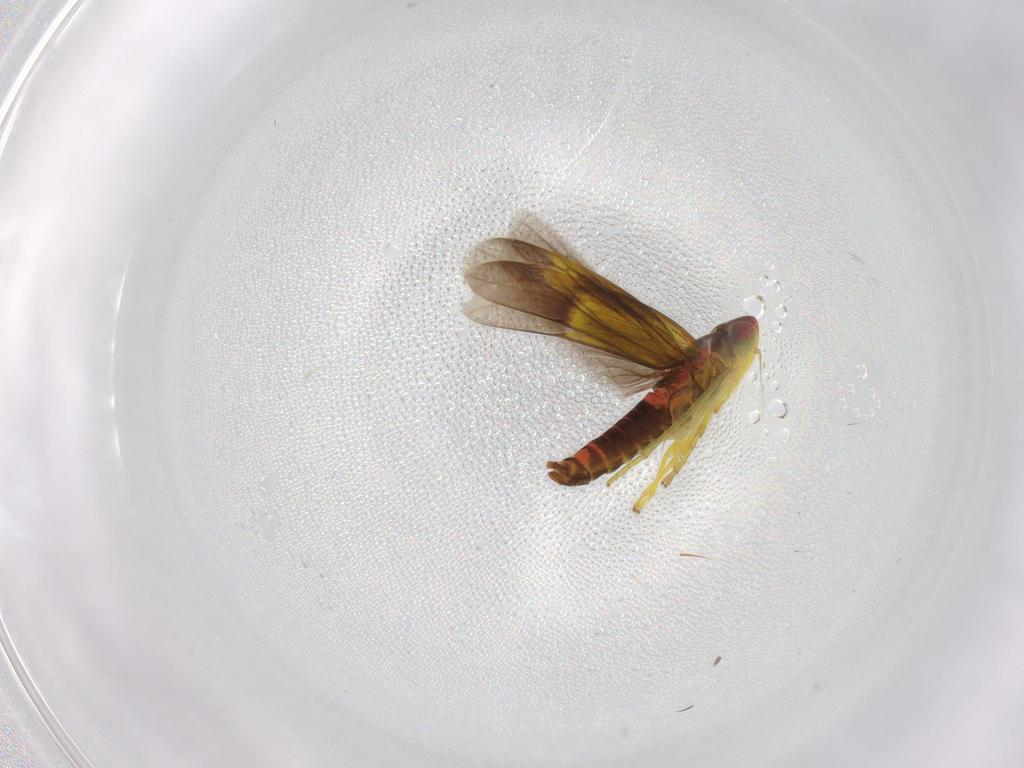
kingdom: Animalia
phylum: Arthropoda
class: Insecta
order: Hemiptera
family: Cicadellidae
